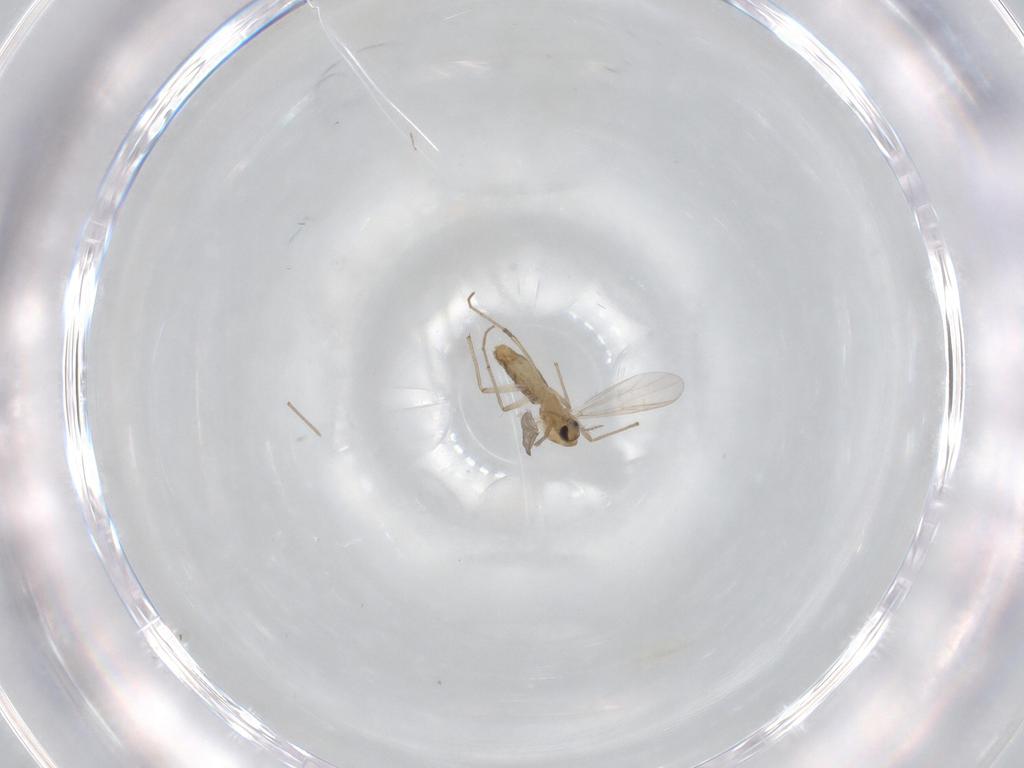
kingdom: Animalia
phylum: Arthropoda
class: Insecta
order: Diptera
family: Chironomidae
